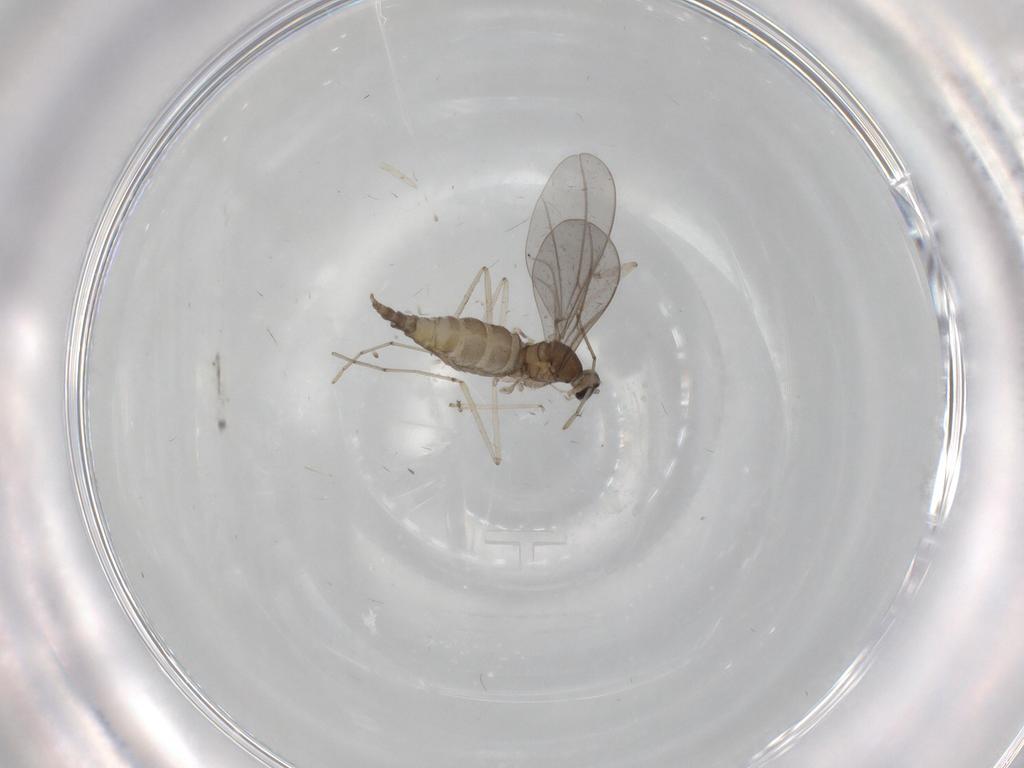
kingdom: Animalia
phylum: Arthropoda
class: Insecta
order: Diptera
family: Cecidomyiidae
